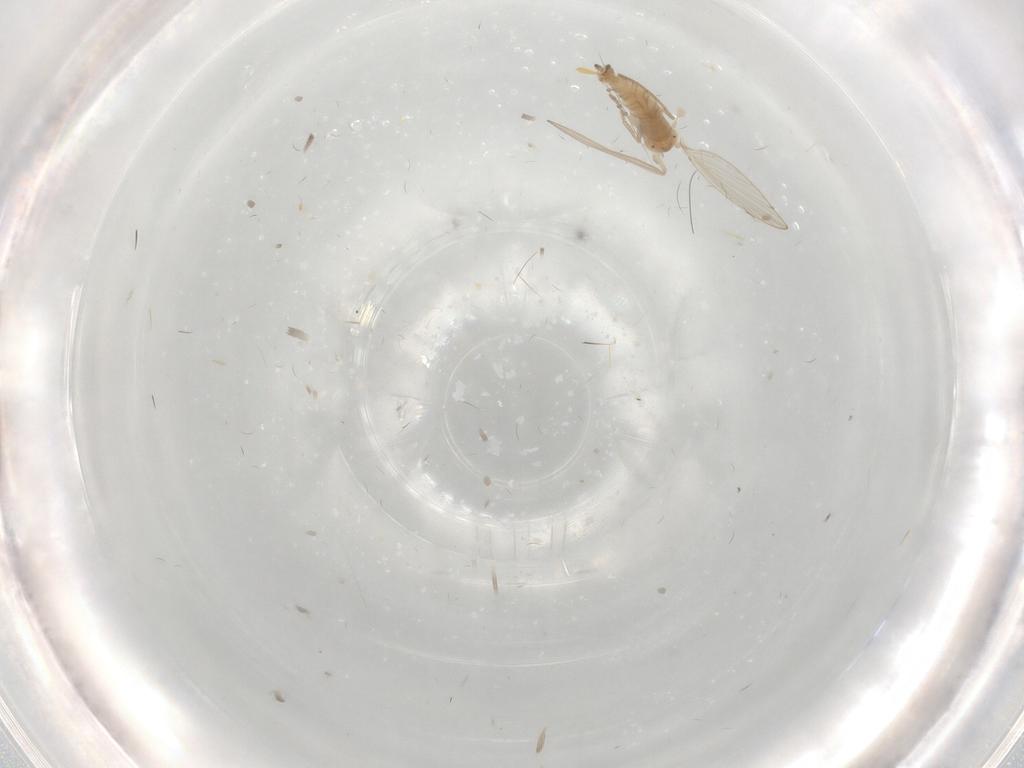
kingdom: Animalia
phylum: Arthropoda
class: Insecta
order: Diptera
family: Psychodidae
